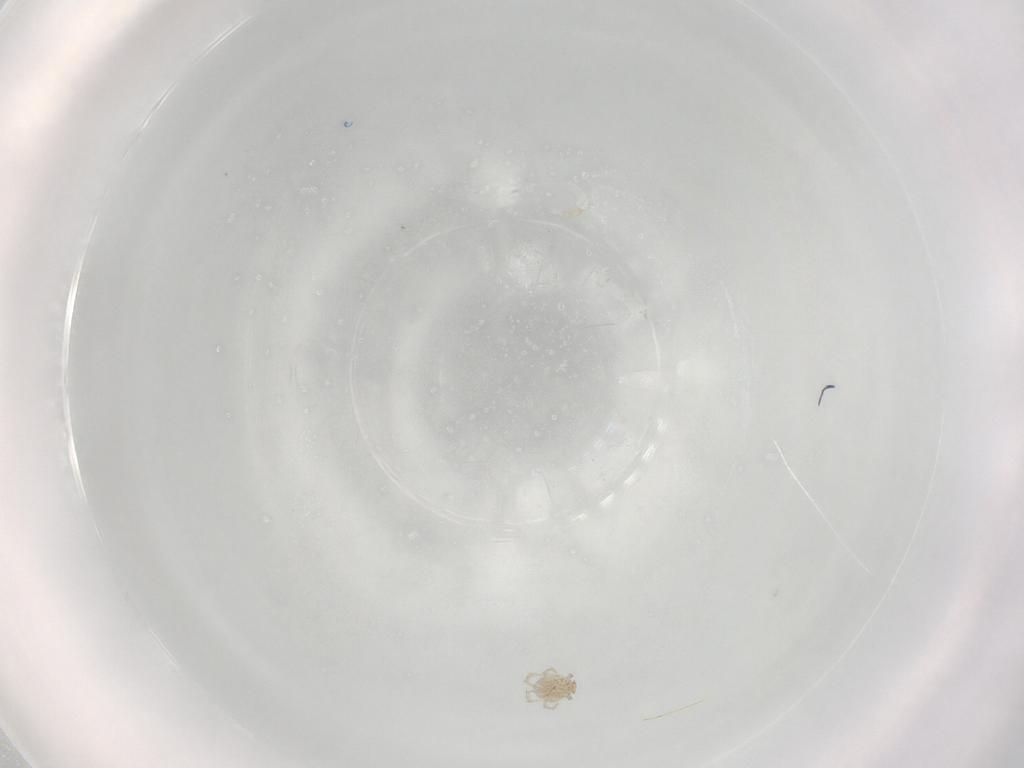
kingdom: Animalia
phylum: Arthropoda
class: Arachnida
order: Trombidiformes
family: Erythraeidae
